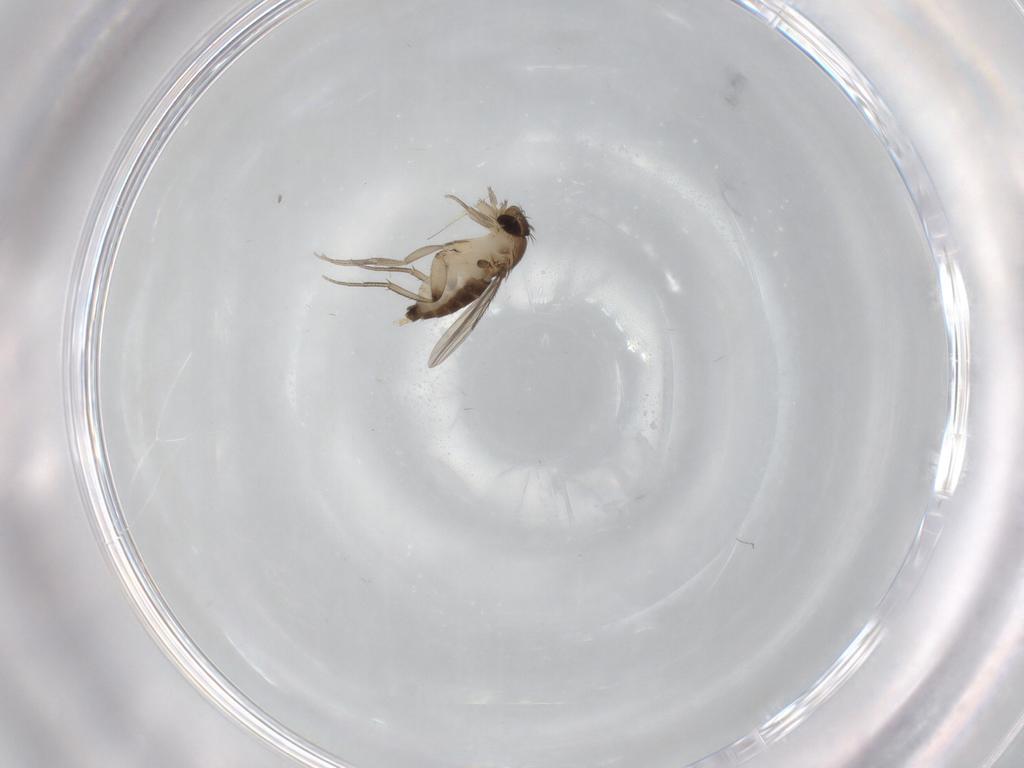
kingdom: Animalia
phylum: Arthropoda
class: Insecta
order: Diptera
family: Phoridae
